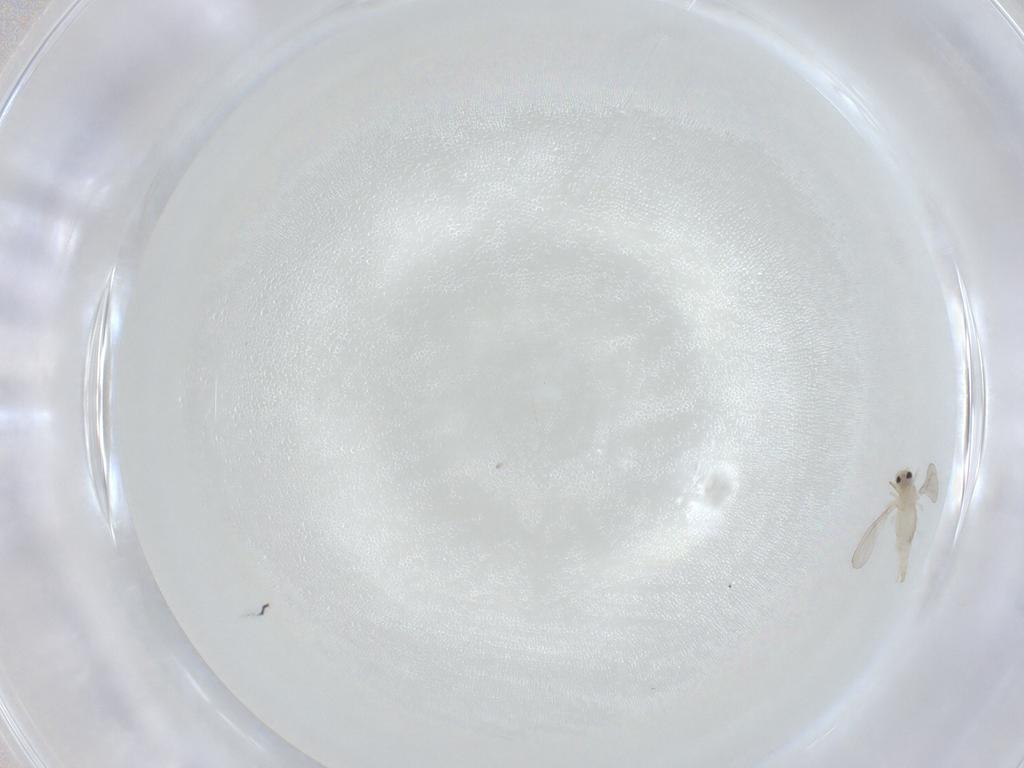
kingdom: Animalia
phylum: Arthropoda
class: Insecta
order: Diptera
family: Cecidomyiidae
